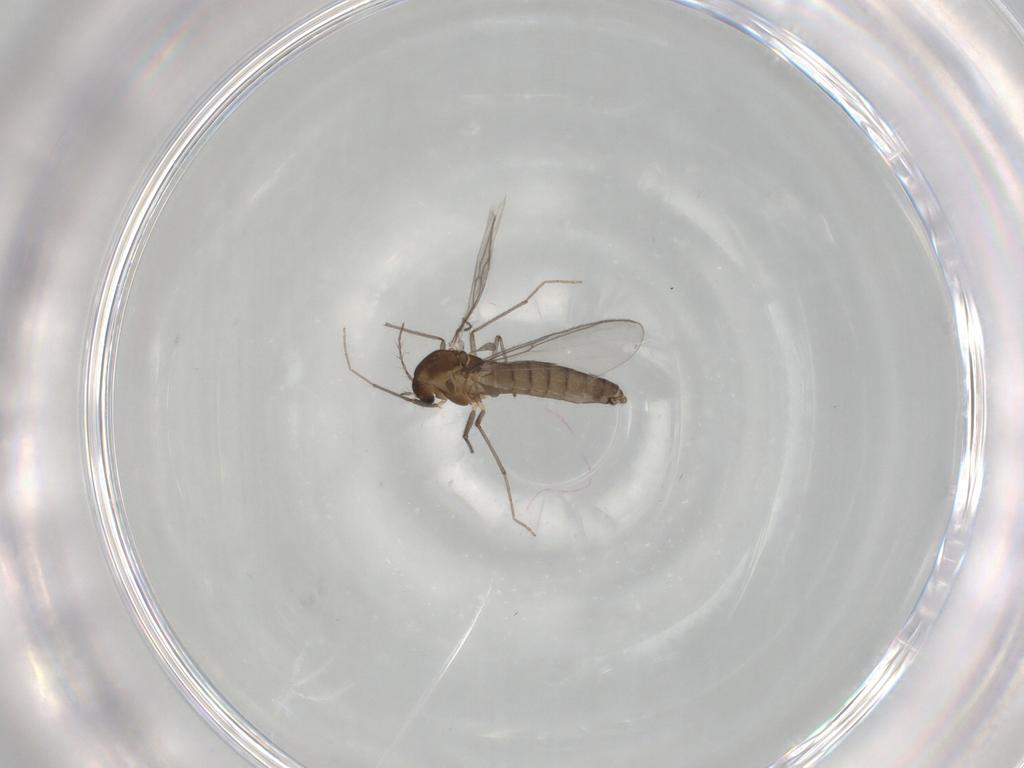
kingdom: Animalia
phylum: Arthropoda
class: Insecta
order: Diptera
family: Chironomidae
